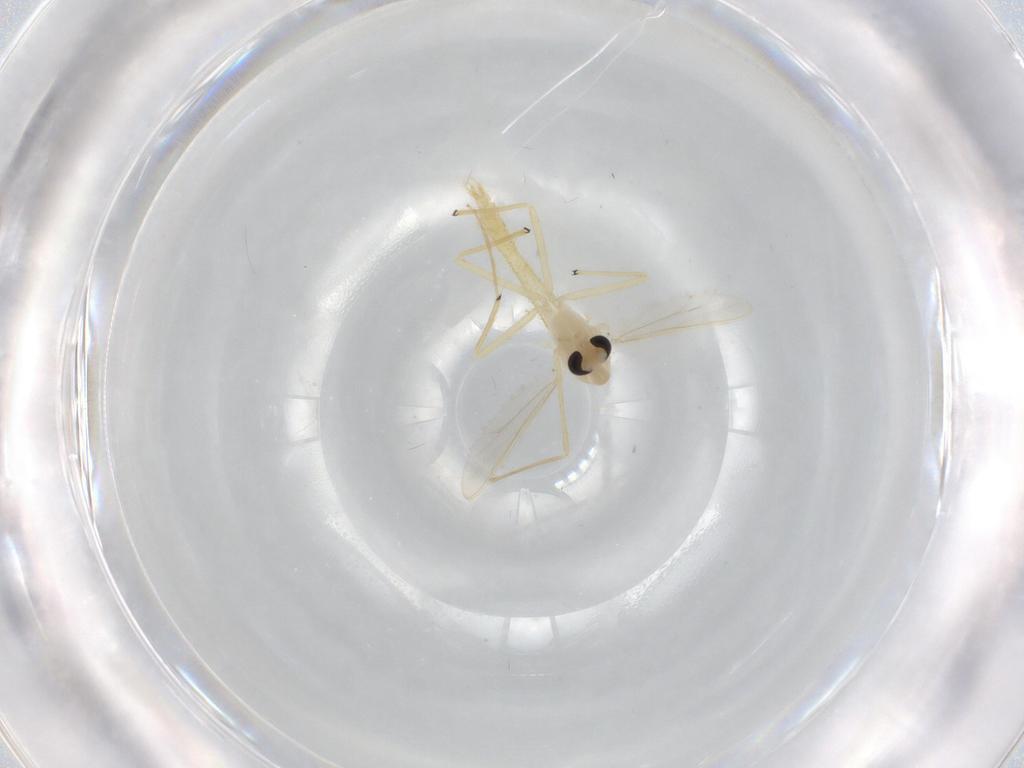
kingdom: Animalia
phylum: Arthropoda
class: Insecta
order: Diptera
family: Chironomidae
